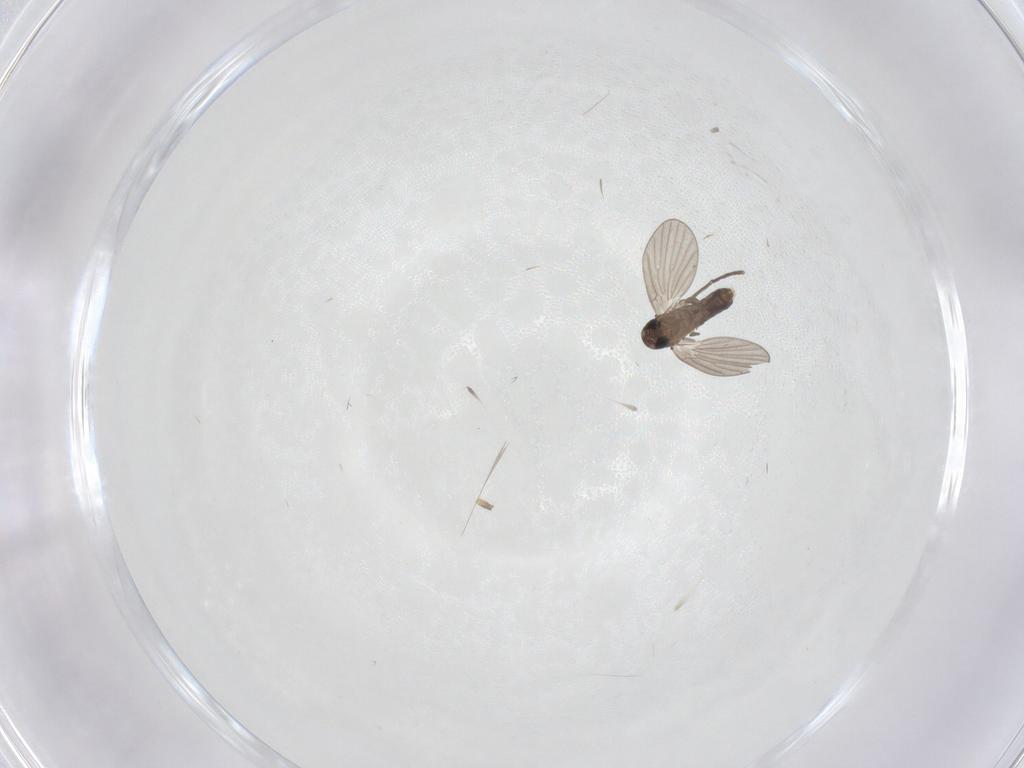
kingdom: Animalia
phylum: Arthropoda
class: Insecta
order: Diptera
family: Psychodidae
